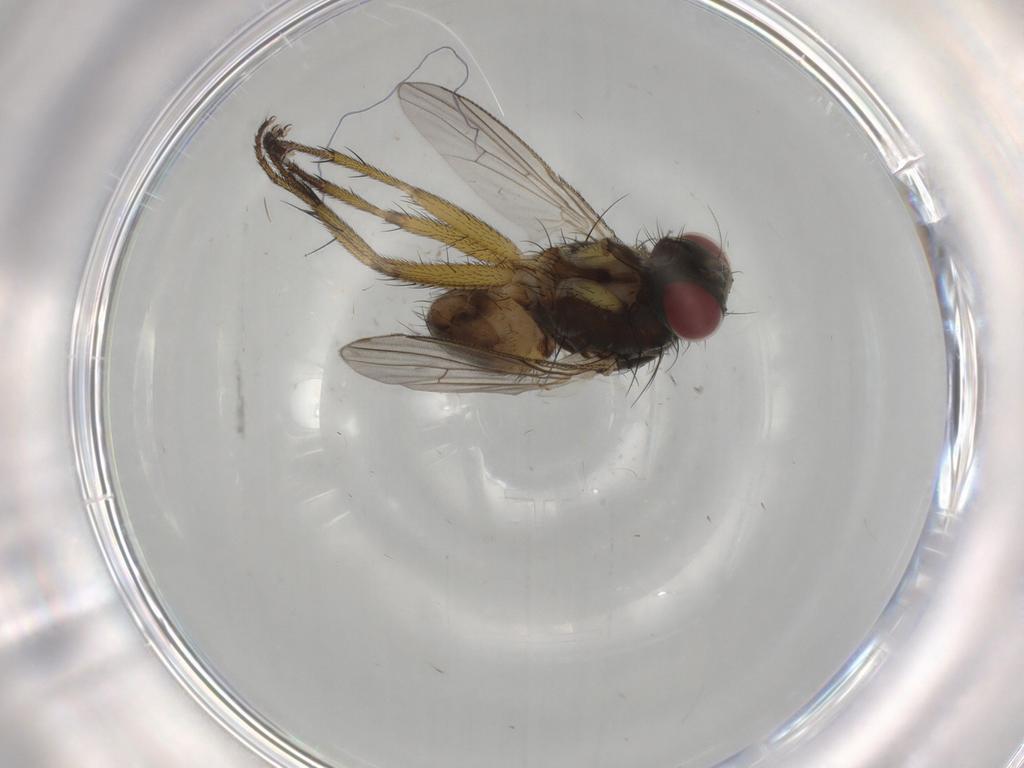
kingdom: Animalia
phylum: Arthropoda
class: Insecta
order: Diptera
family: Muscidae
